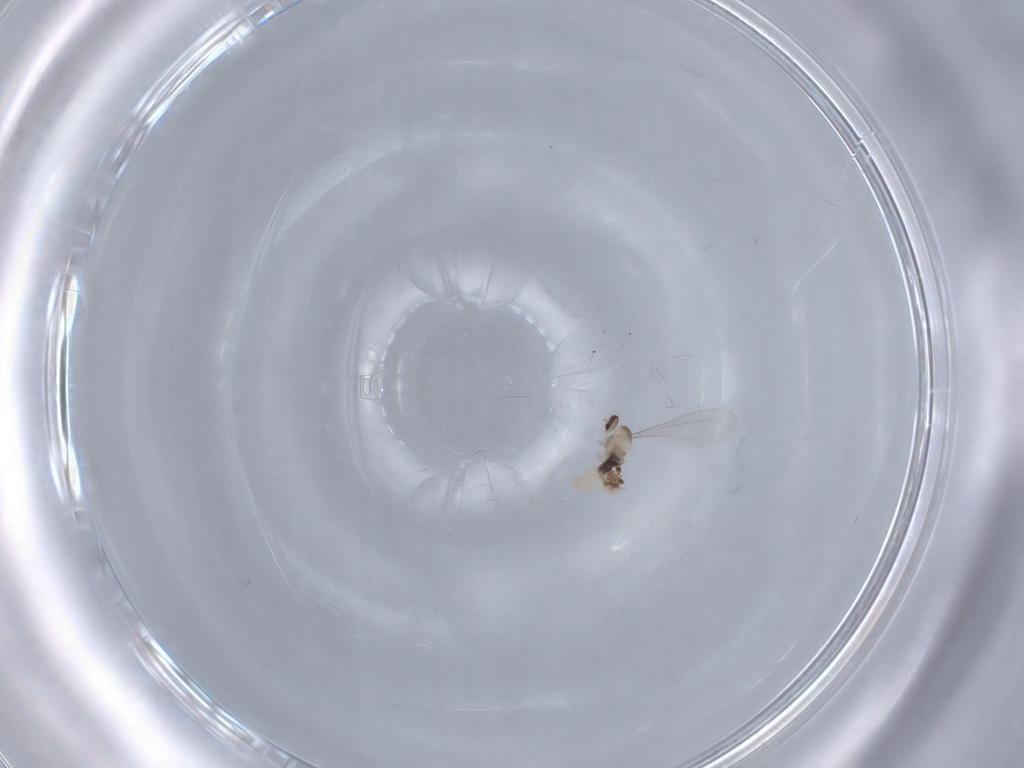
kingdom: Animalia
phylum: Arthropoda
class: Insecta
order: Diptera
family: Cecidomyiidae
